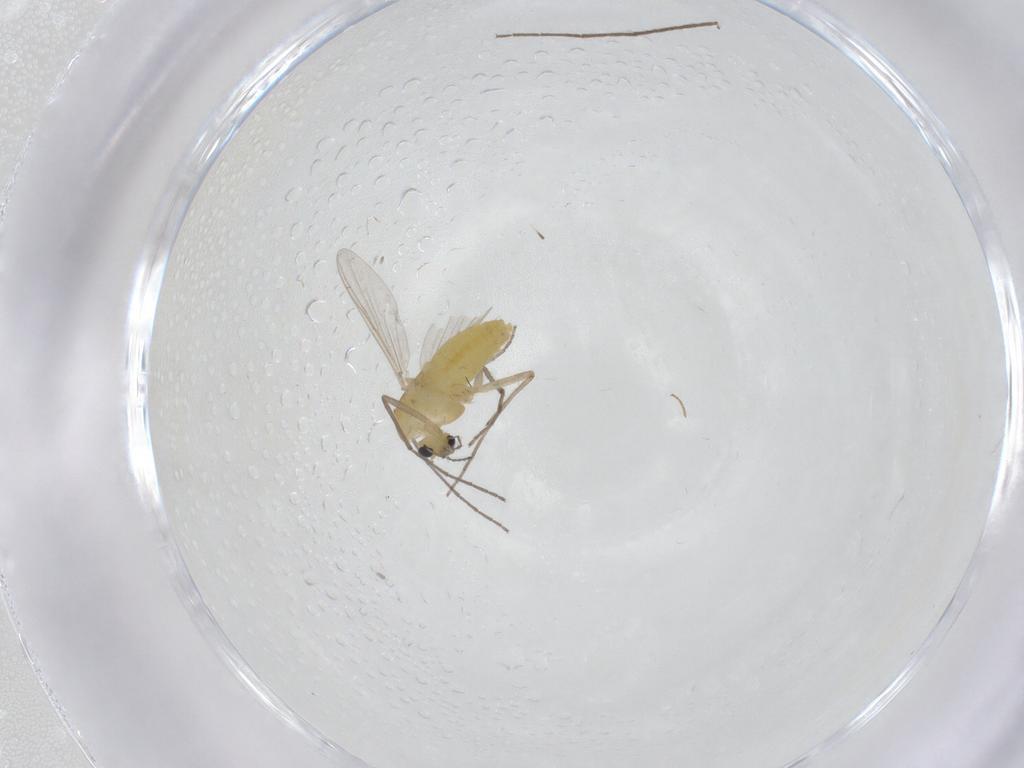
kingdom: Animalia
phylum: Arthropoda
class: Insecta
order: Diptera
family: Chironomidae
